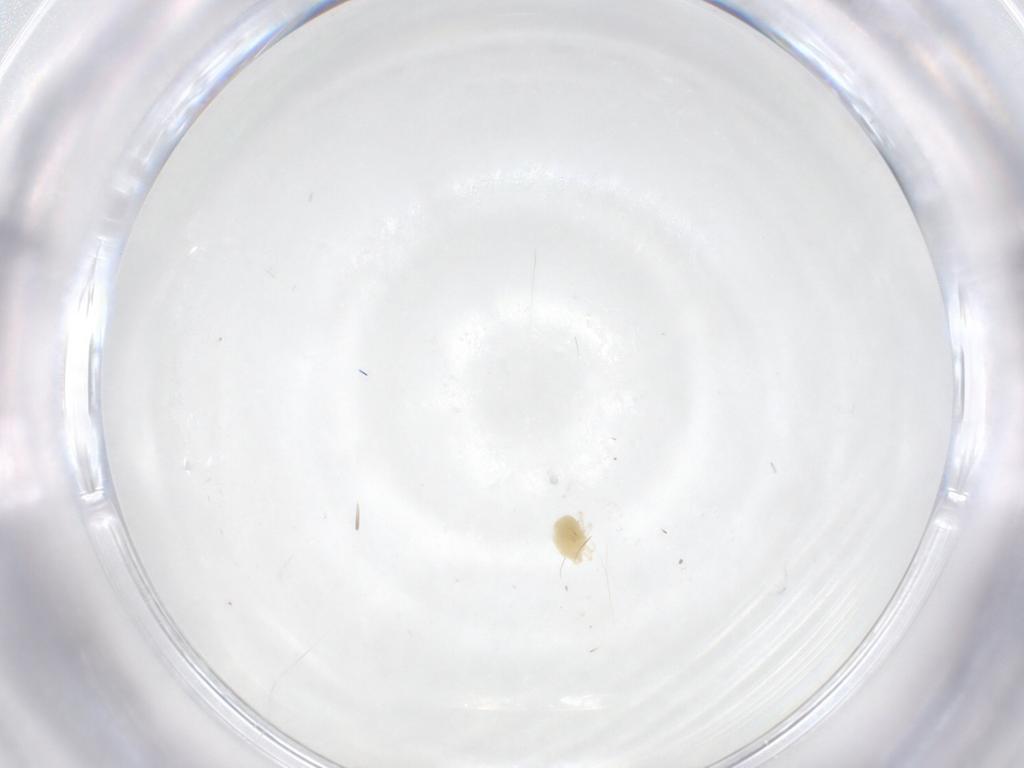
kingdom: Animalia
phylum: Arthropoda
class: Arachnida
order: Trombidiformes
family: Tetranychidae
